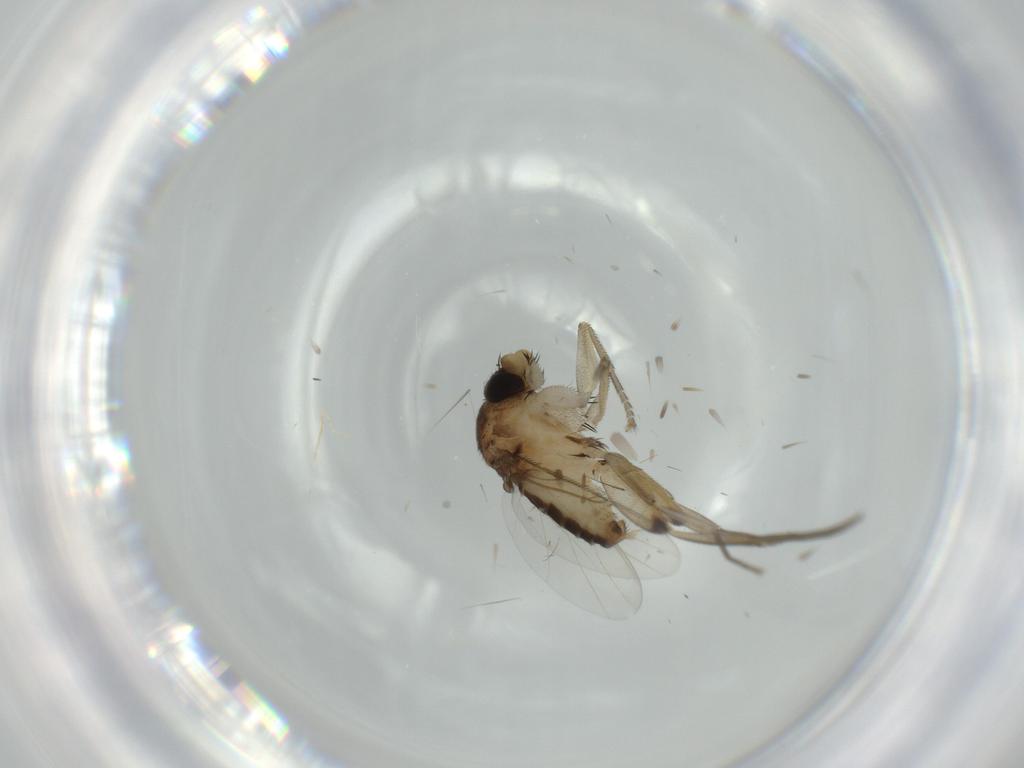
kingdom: Animalia
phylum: Arthropoda
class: Insecta
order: Diptera
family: Phoridae
